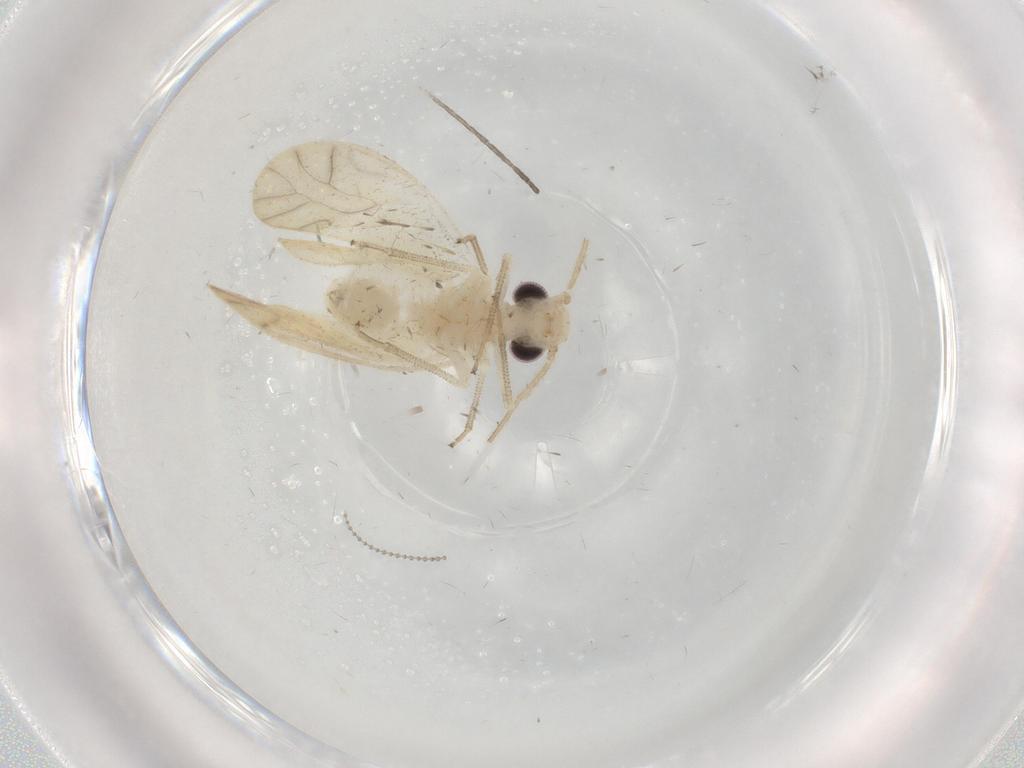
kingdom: Animalia
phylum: Arthropoda
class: Insecta
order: Psocodea
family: Caeciliusidae
